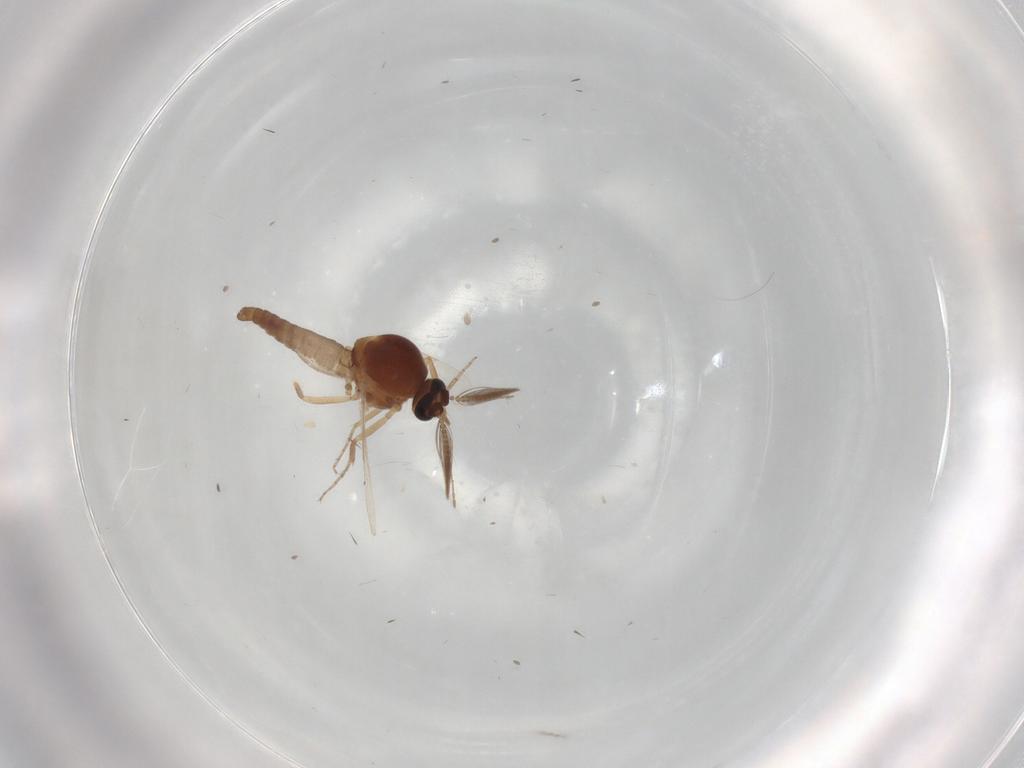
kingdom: Animalia
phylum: Arthropoda
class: Insecta
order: Diptera
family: Ceratopogonidae
